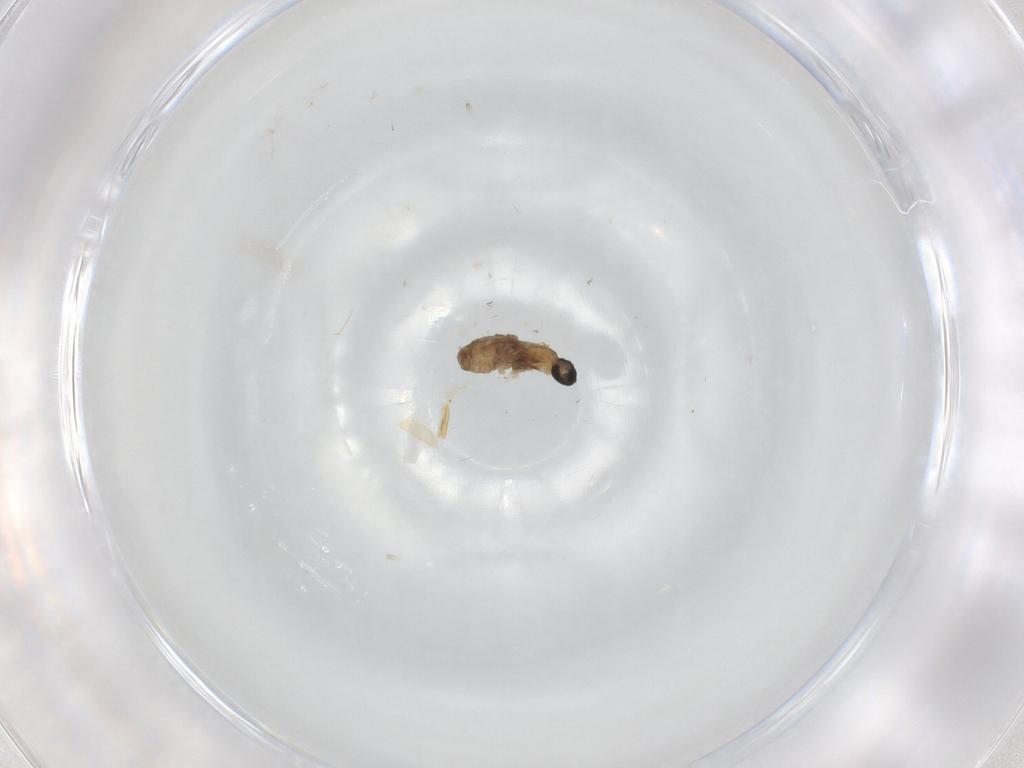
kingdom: Animalia
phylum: Arthropoda
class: Insecta
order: Diptera
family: Cecidomyiidae
